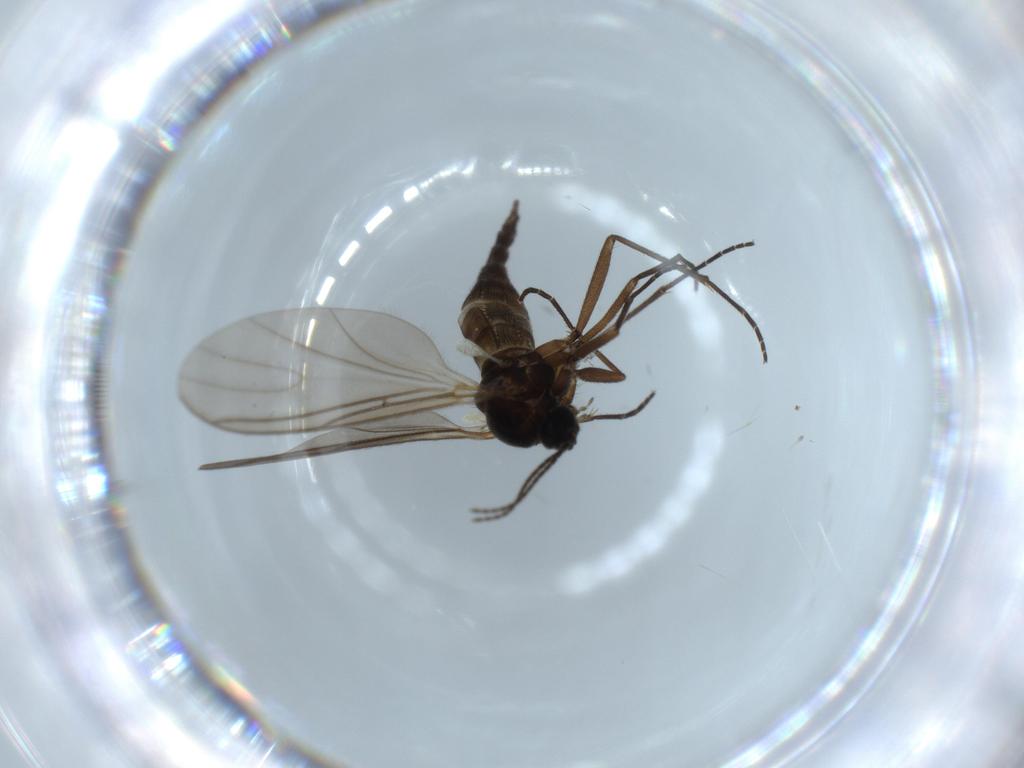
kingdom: Animalia
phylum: Arthropoda
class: Insecta
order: Diptera
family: Sciaridae
